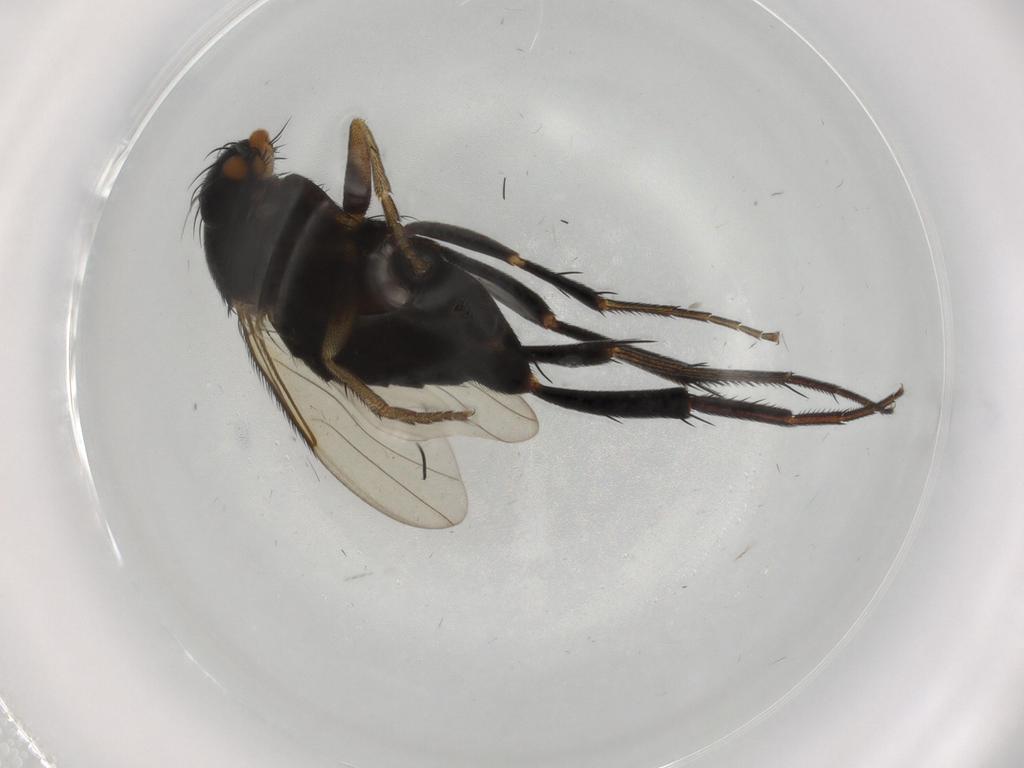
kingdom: Animalia
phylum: Arthropoda
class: Insecta
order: Diptera
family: Phoridae
